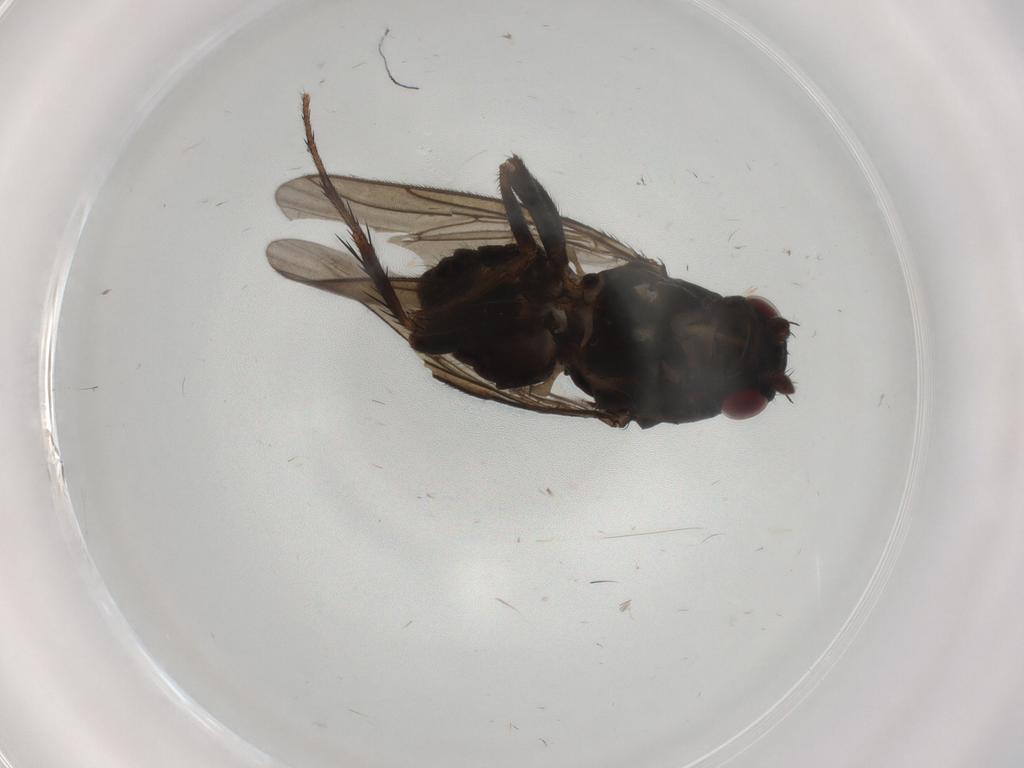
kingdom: Animalia
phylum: Arthropoda
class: Insecta
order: Diptera
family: Sphaeroceridae
